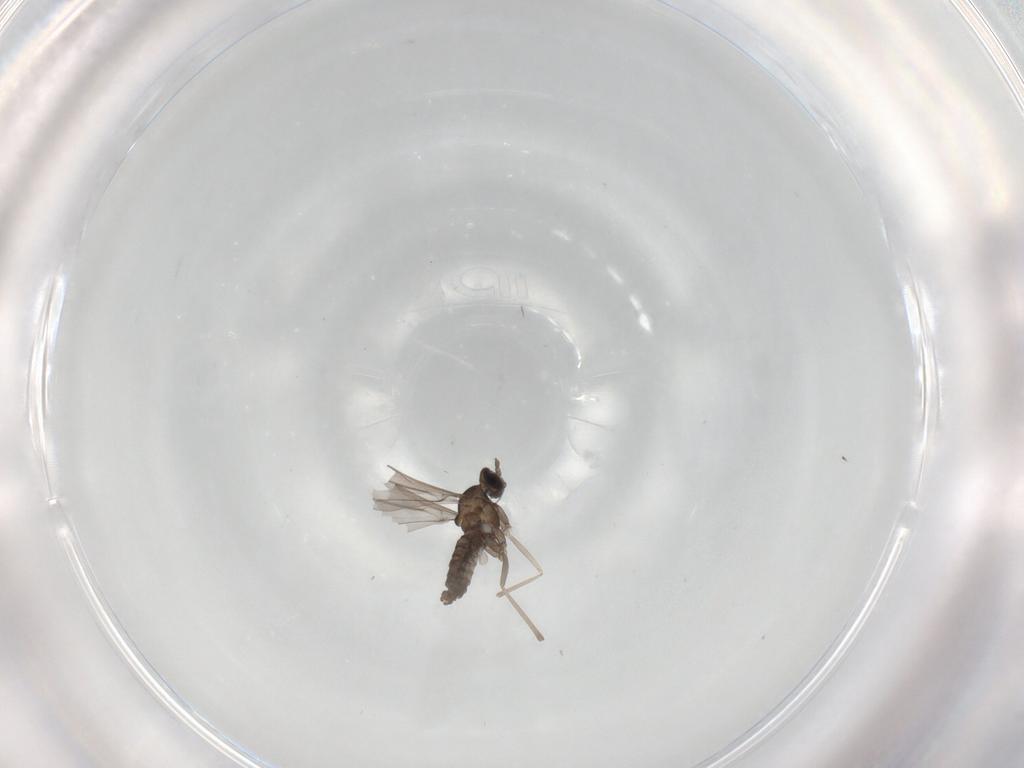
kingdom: Animalia
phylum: Arthropoda
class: Insecta
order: Diptera
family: Cecidomyiidae
